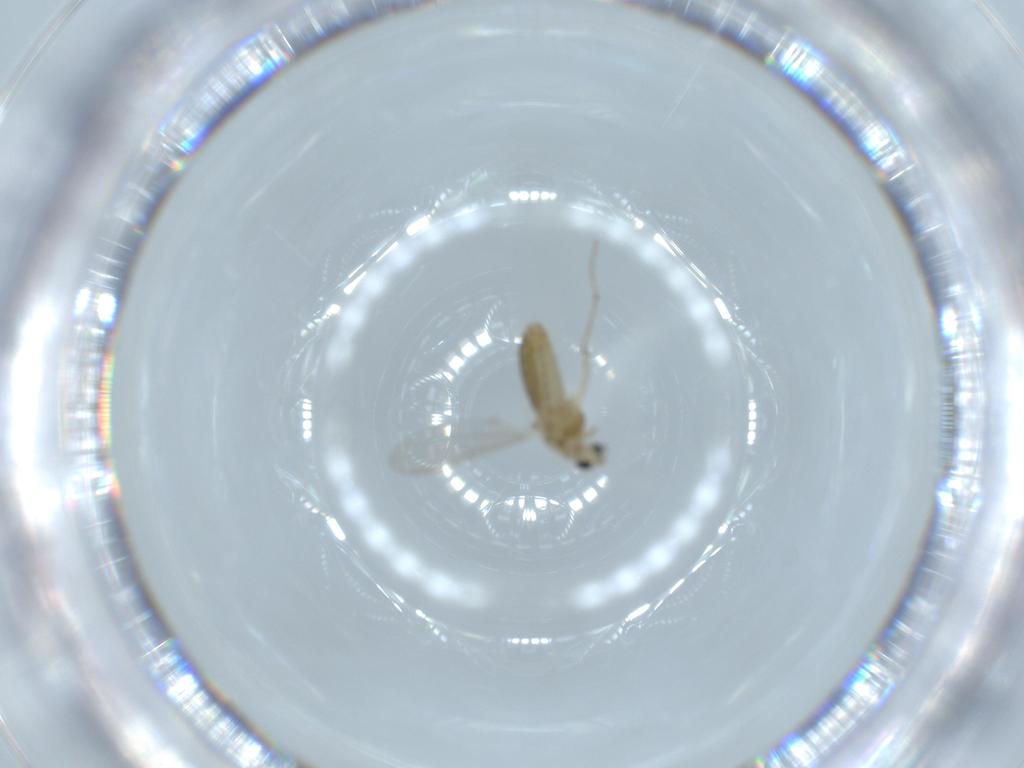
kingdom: Animalia
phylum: Arthropoda
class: Insecta
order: Diptera
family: Chironomidae
